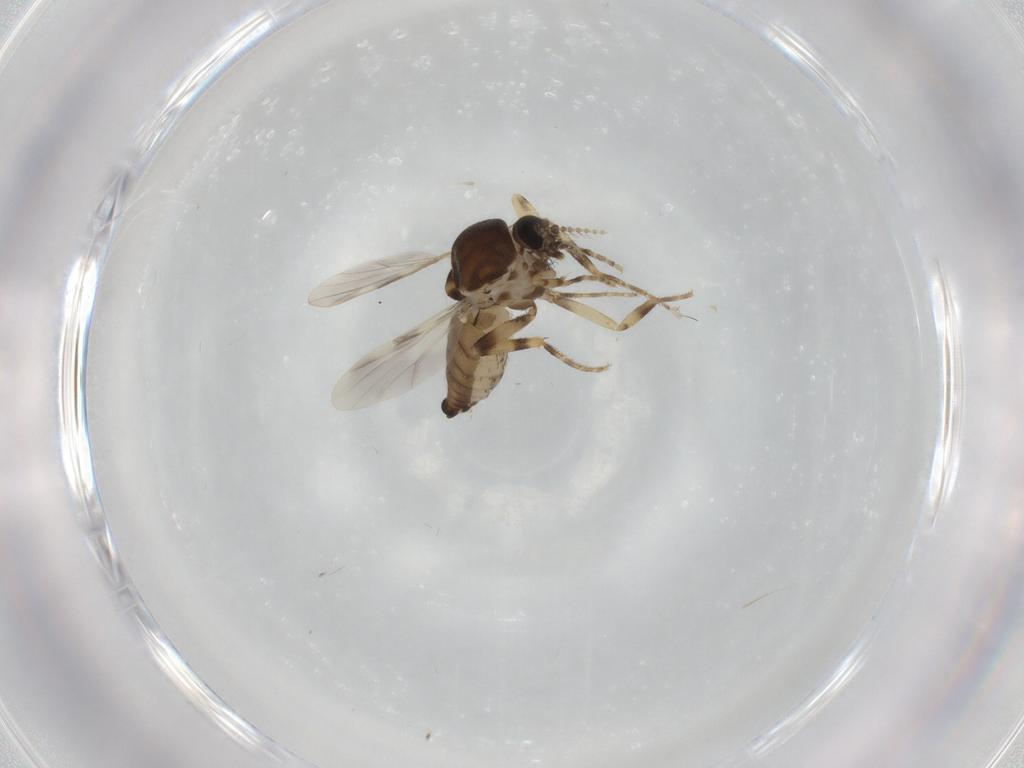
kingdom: Animalia
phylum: Arthropoda
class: Insecta
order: Diptera
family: Ceratopogonidae
